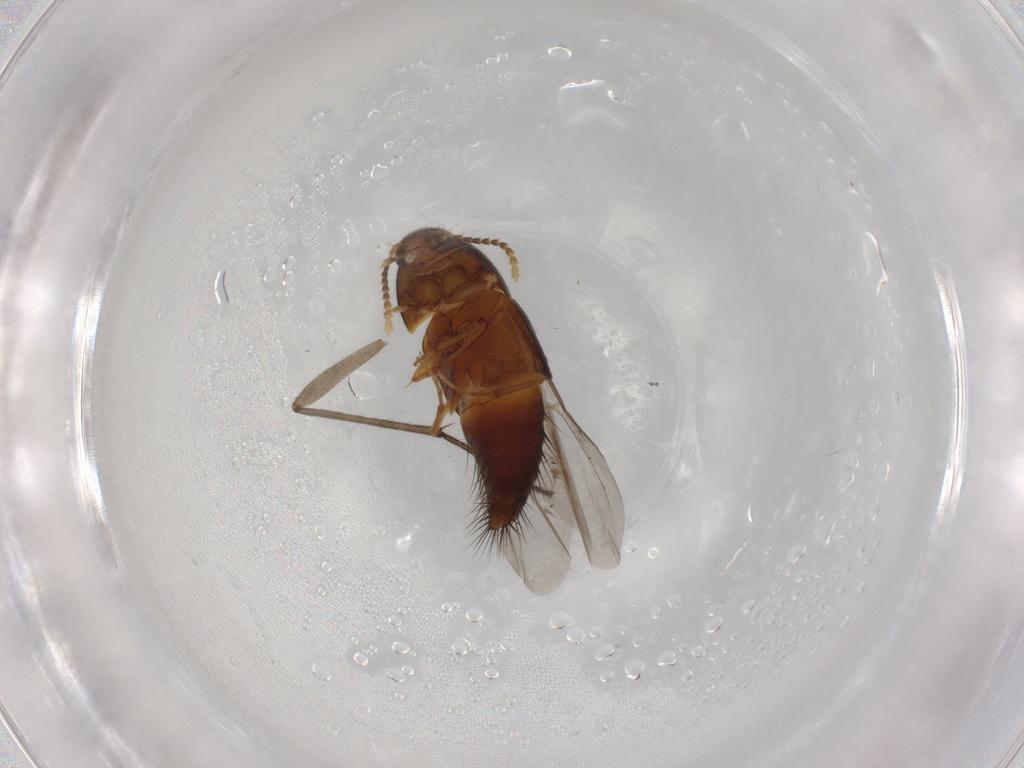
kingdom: Animalia
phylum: Arthropoda
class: Insecta
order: Coleoptera
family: Staphylinidae
